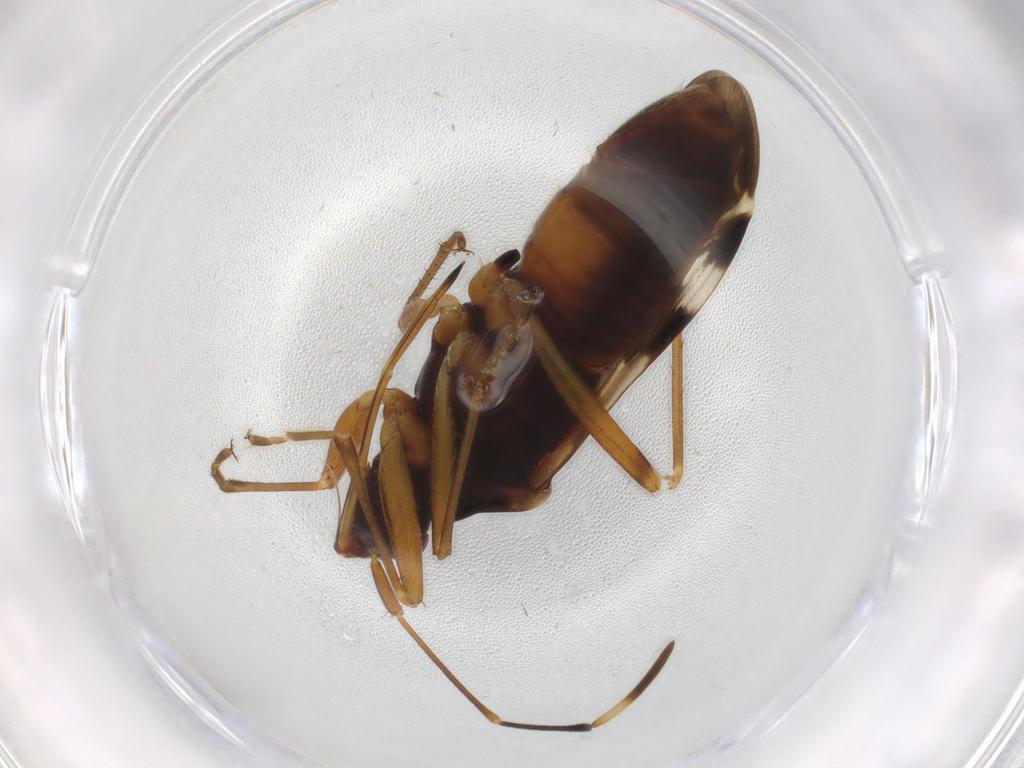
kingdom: Animalia
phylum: Arthropoda
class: Insecta
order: Hemiptera
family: Rhyparochromidae
